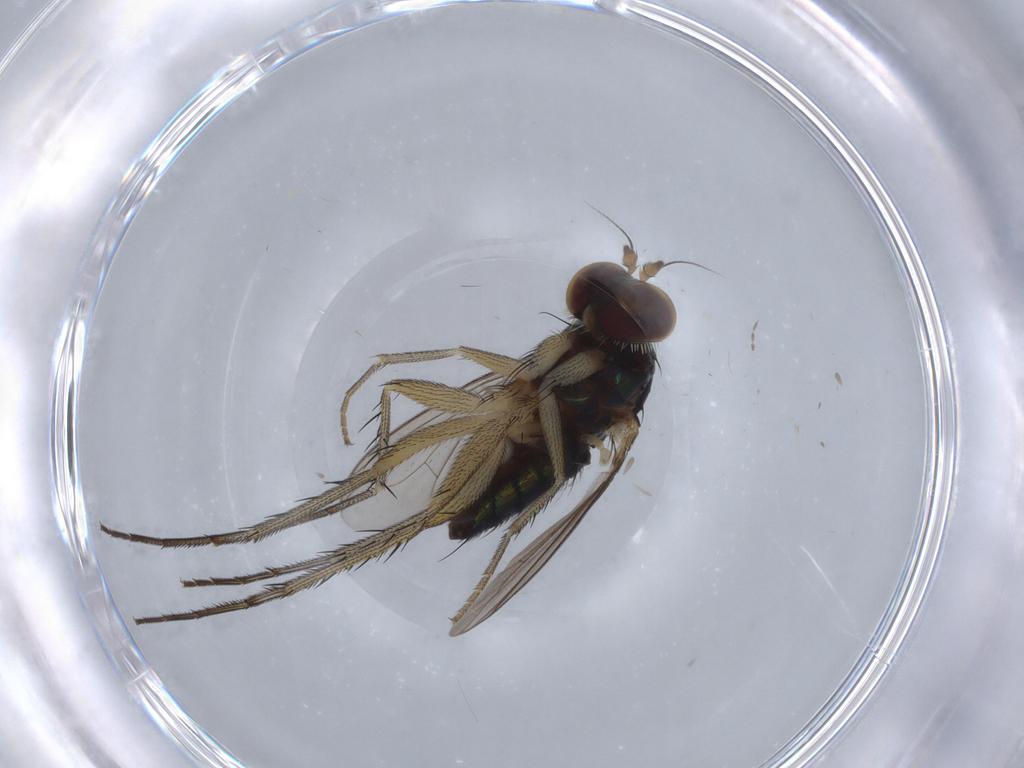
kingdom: Animalia
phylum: Arthropoda
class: Insecta
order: Diptera
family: Dolichopodidae
